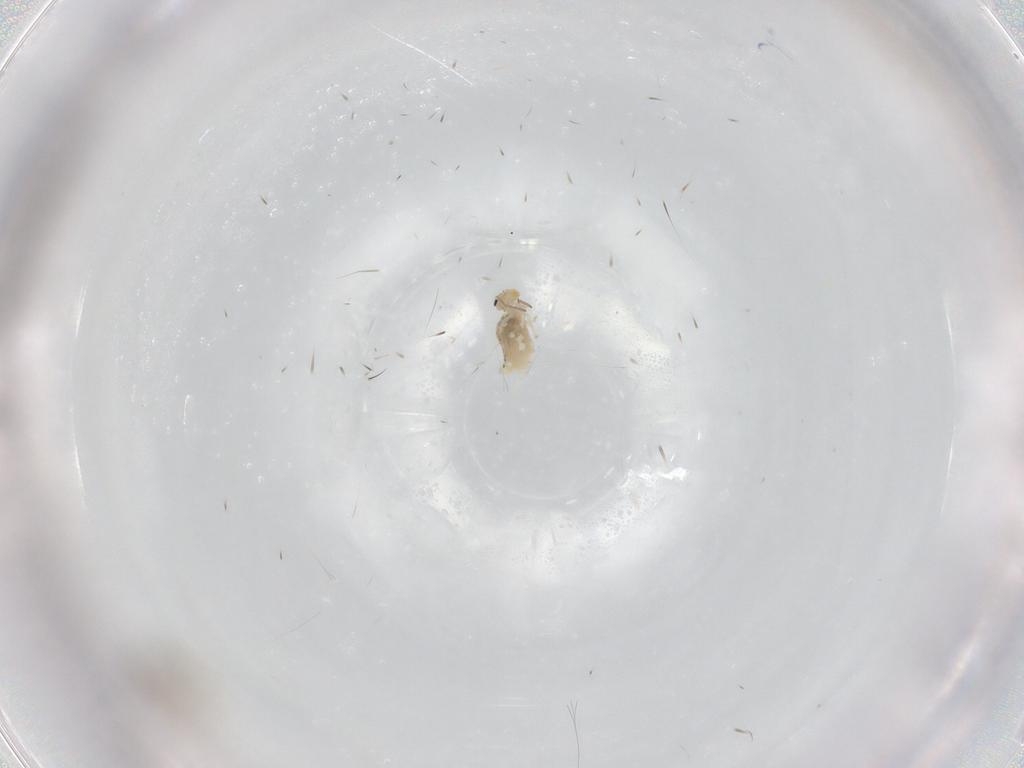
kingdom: Animalia
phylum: Arthropoda
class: Collembola
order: Symphypleona
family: Bourletiellidae
